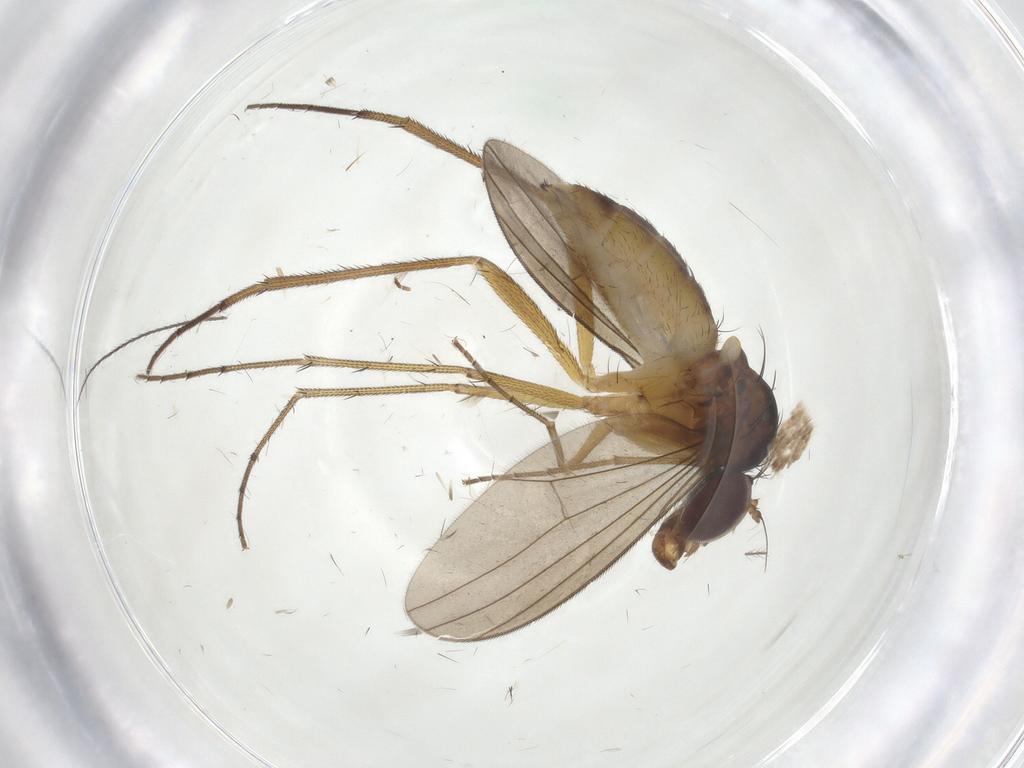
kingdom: Animalia
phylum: Arthropoda
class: Insecta
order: Diptera
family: Dolichopodidae
